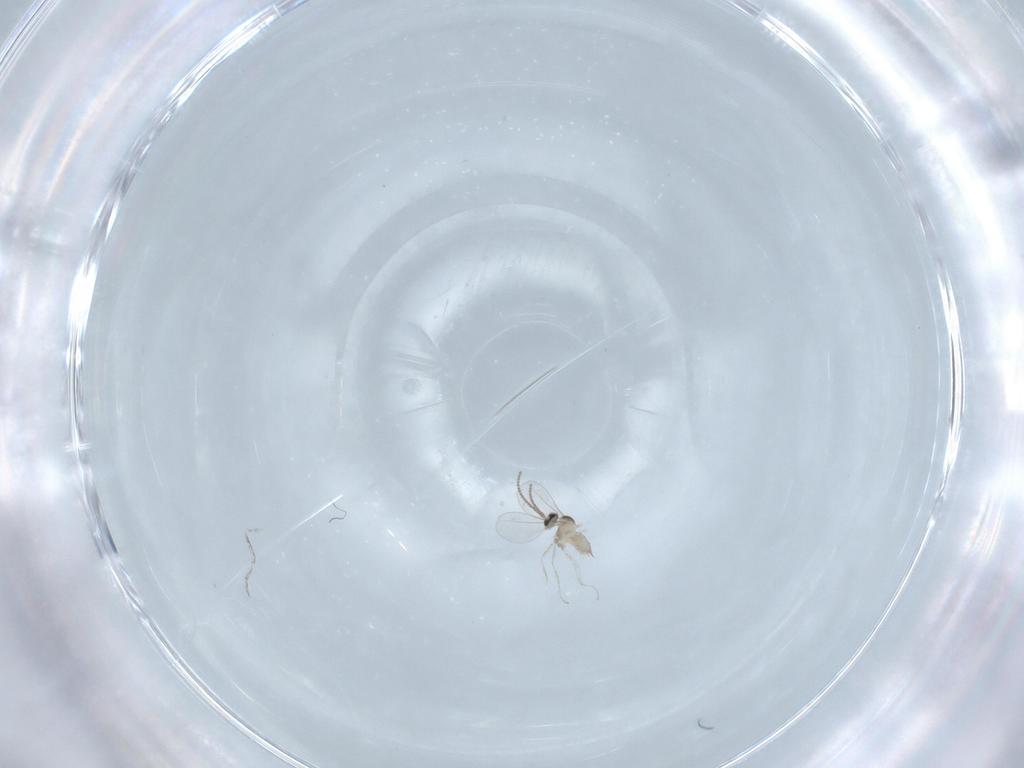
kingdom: Animalia
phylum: Arthropoda
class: Insecta
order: Diptera
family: Cecidomyiidae
